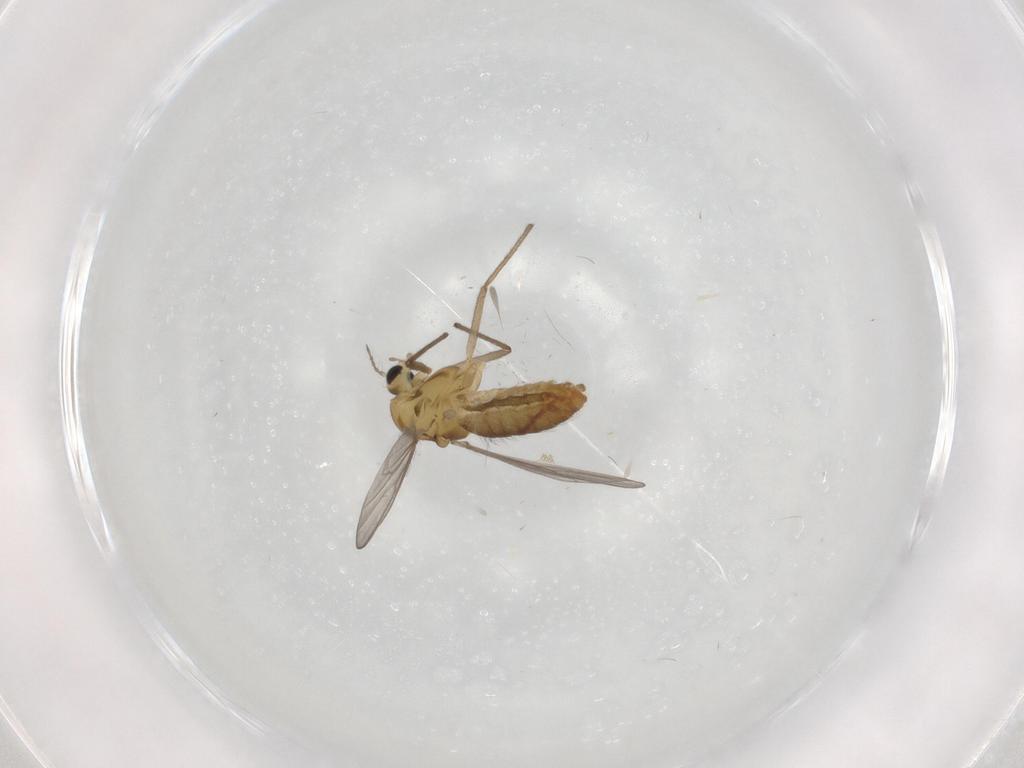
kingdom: Animalia
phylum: Arthropoda
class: Insecta
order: Diptera
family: Chironomidae
